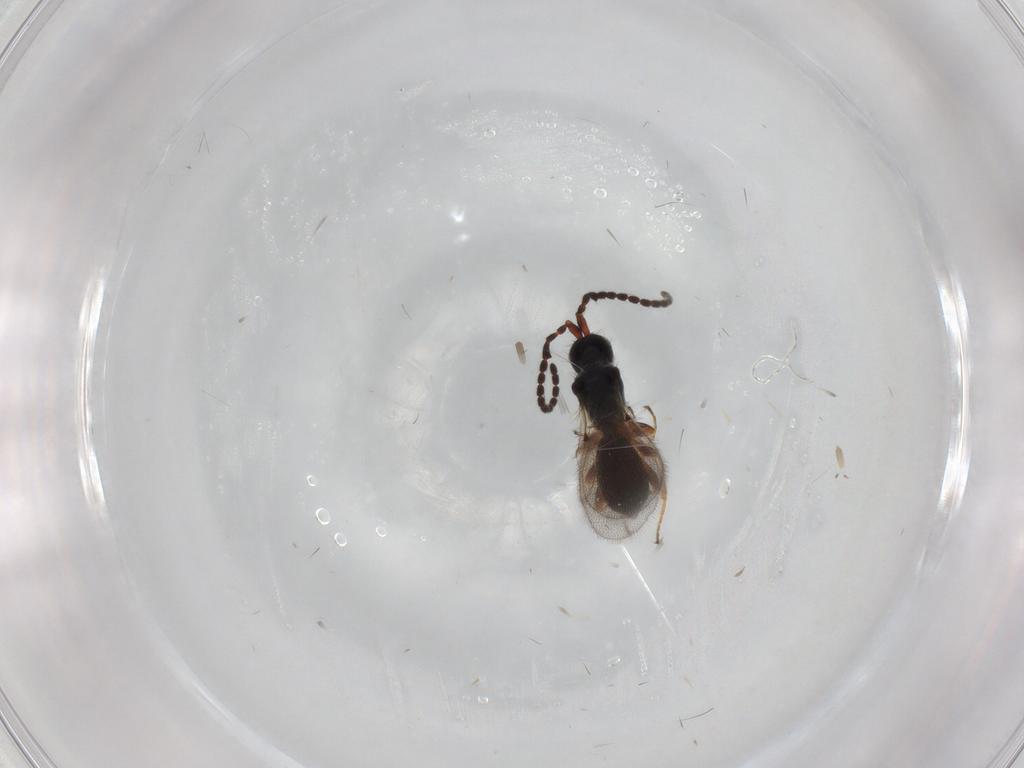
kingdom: Animalia
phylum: Arthropoda
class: Insecta
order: Hymenoptera
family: Diapriidae
